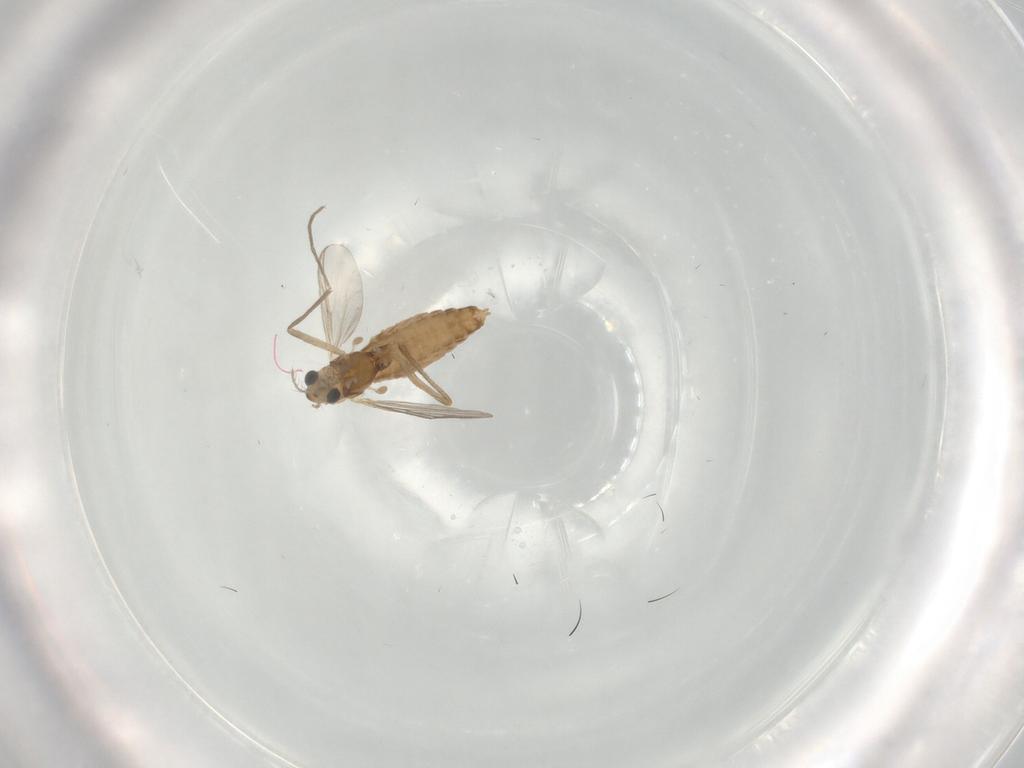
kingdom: Animalia
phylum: Arthropoda
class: Insecta
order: Diptera
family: Chironomidae
